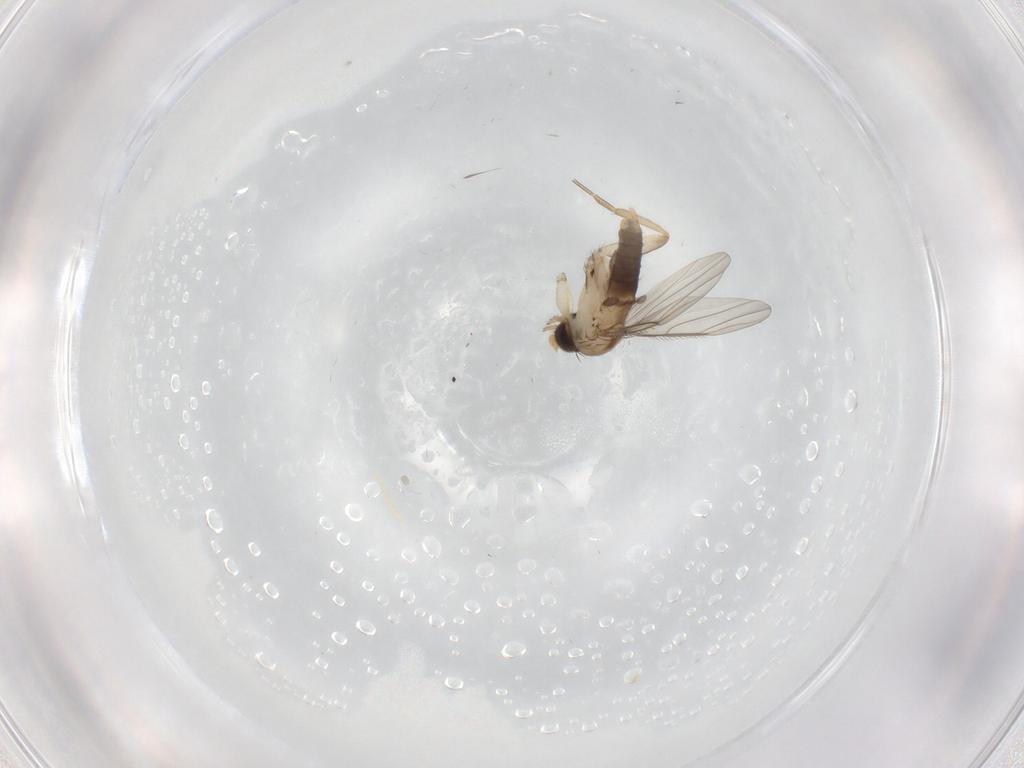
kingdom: Animalia
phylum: Arthropoda
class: Insecta
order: Diptera
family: Phoridae
